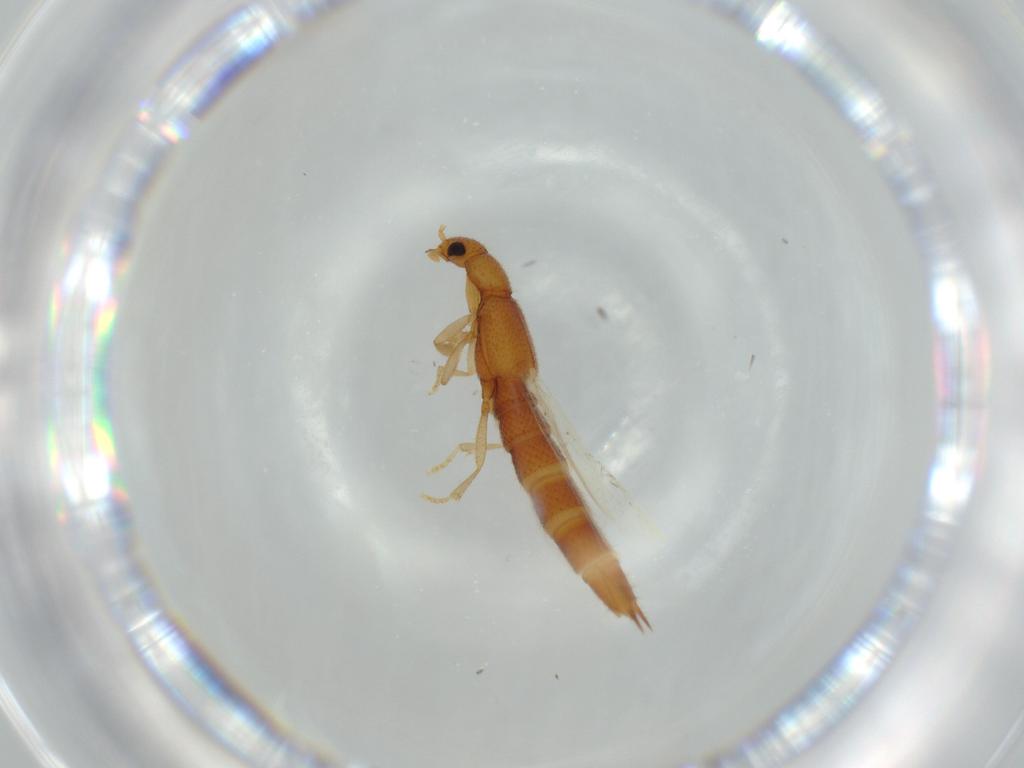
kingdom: Animalia
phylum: Arthropoda
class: Insecta
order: Coleoptera
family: Staphylinidae
